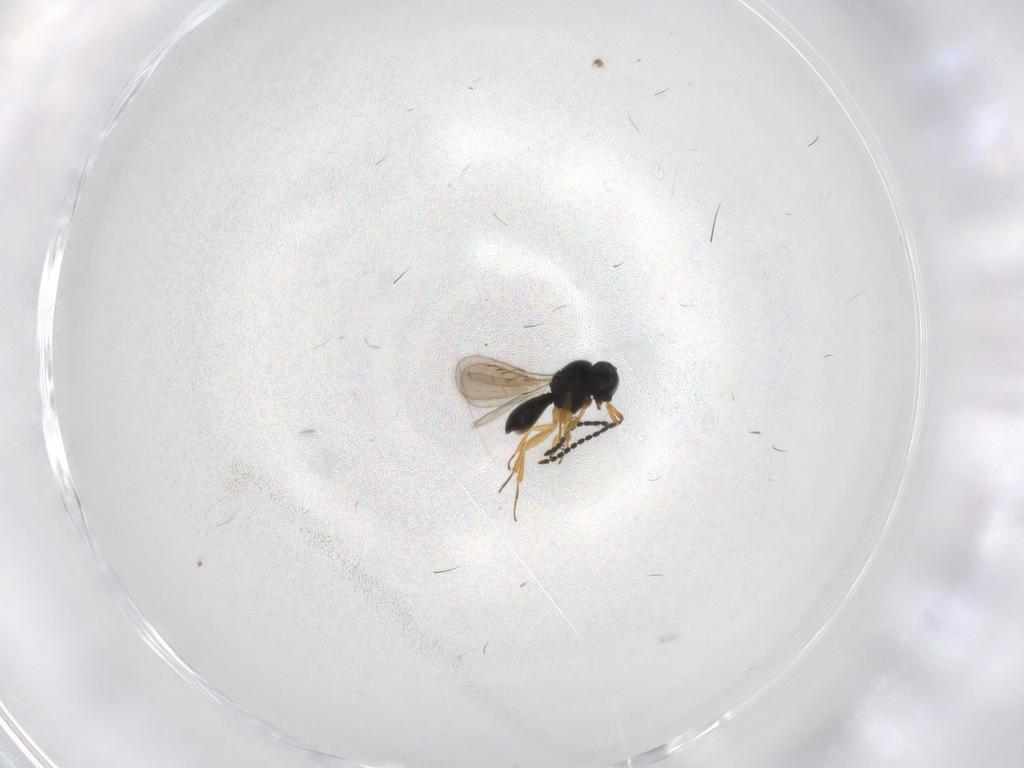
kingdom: Animalia
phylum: Arthropoda
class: Insecta
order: Hymenoptera
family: Scelionidae
